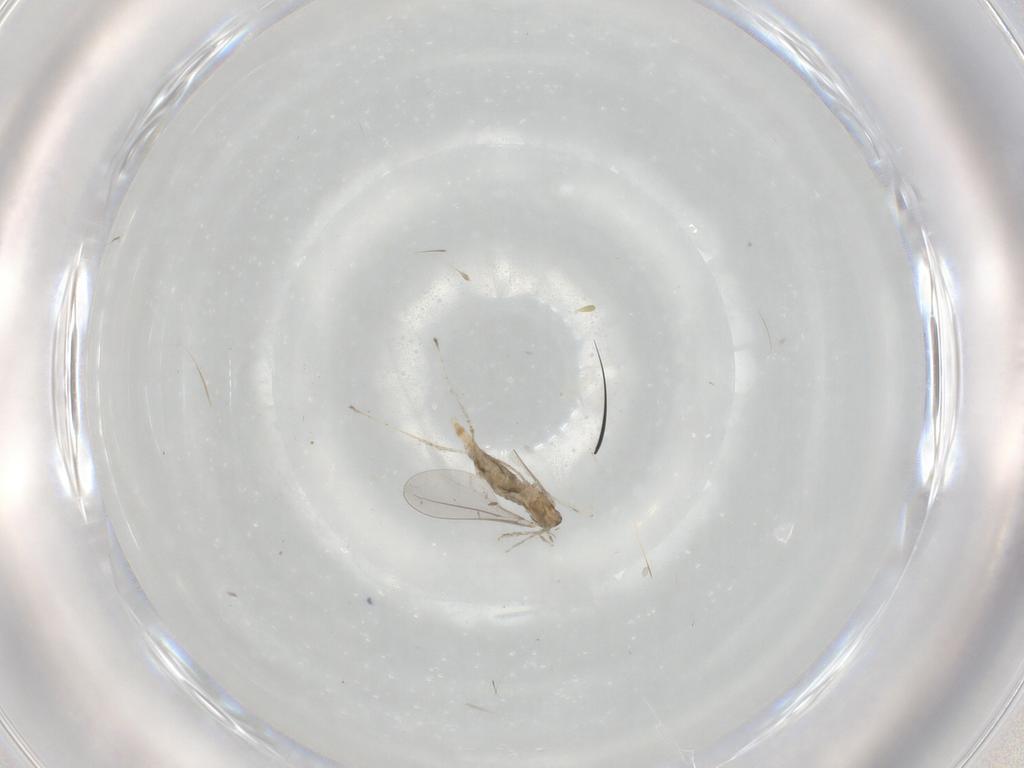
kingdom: Animalia
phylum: Arthropoda
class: Insecta
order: Diptera
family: Cecidomyiidae
